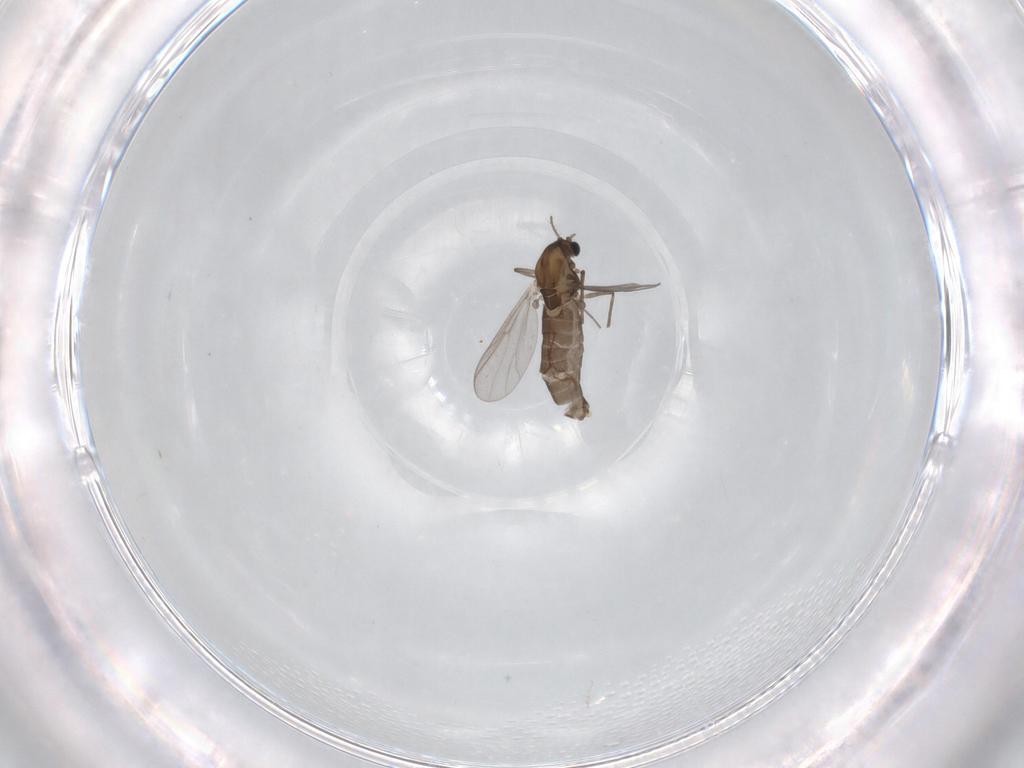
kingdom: Animalia
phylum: Arthropoda
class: Insecta
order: Diptera
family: Chironomidae
